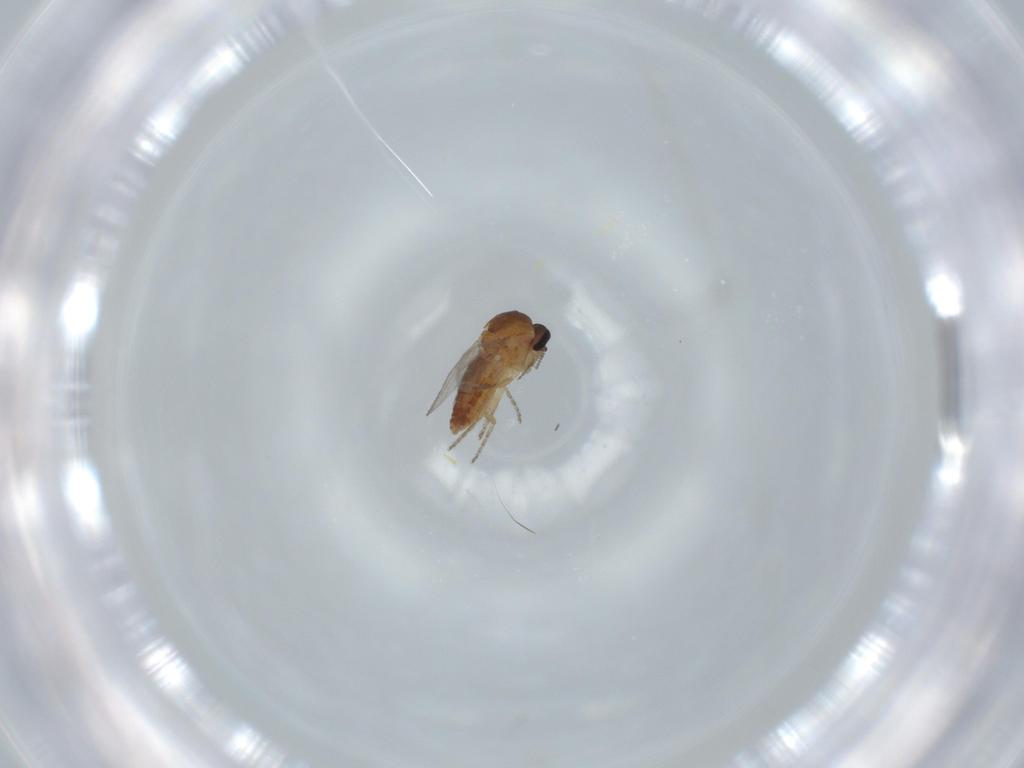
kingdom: Animalia
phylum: Arthropoda
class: Insecta
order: Diptera
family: Ceratopogonidae
